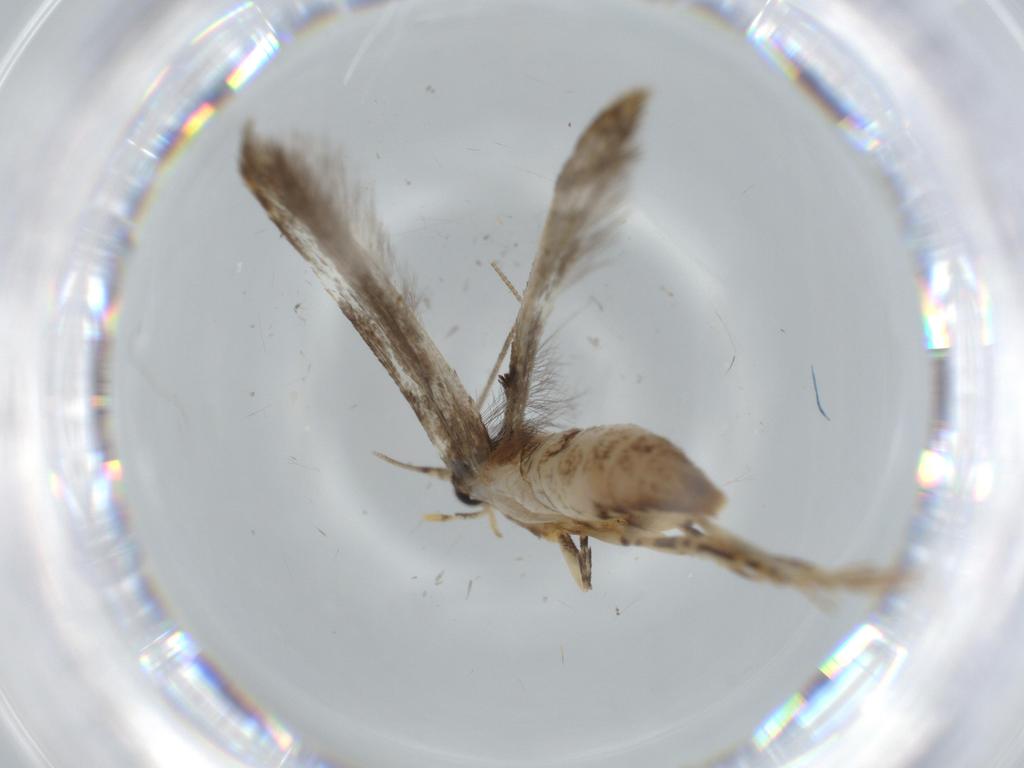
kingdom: Animalia
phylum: Arthropoda
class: Insecta
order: Lepidoptera
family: Tineidae
